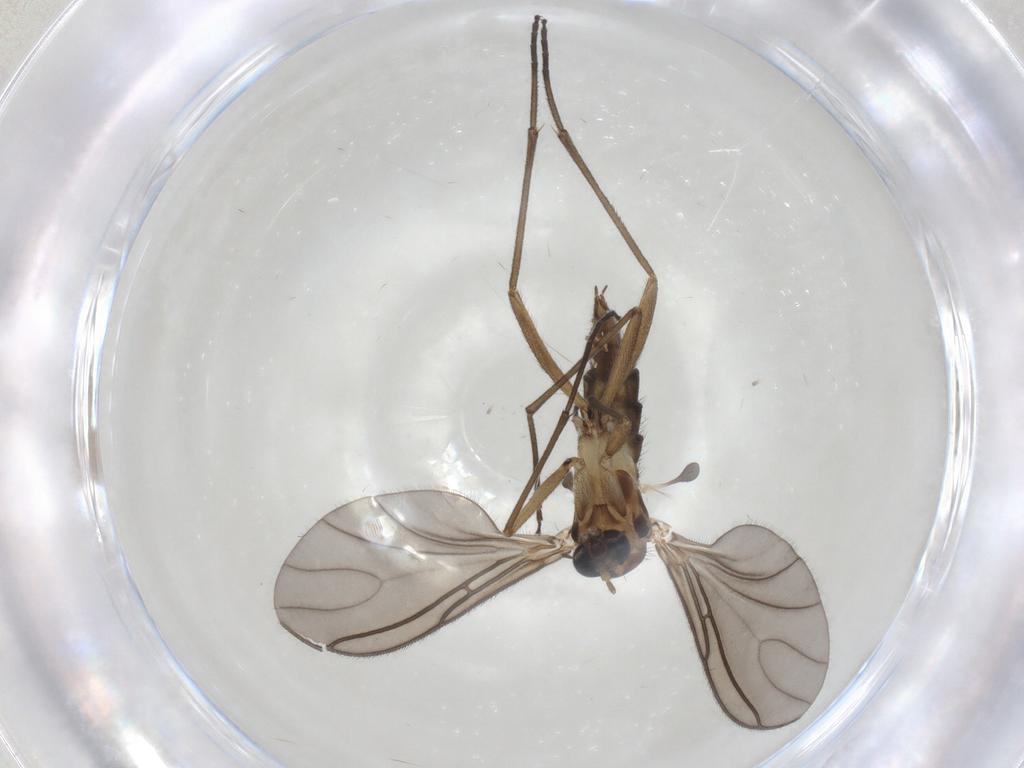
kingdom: Animalia
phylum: Arthropoda
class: Insecta
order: Diptera
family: Sciaridae
